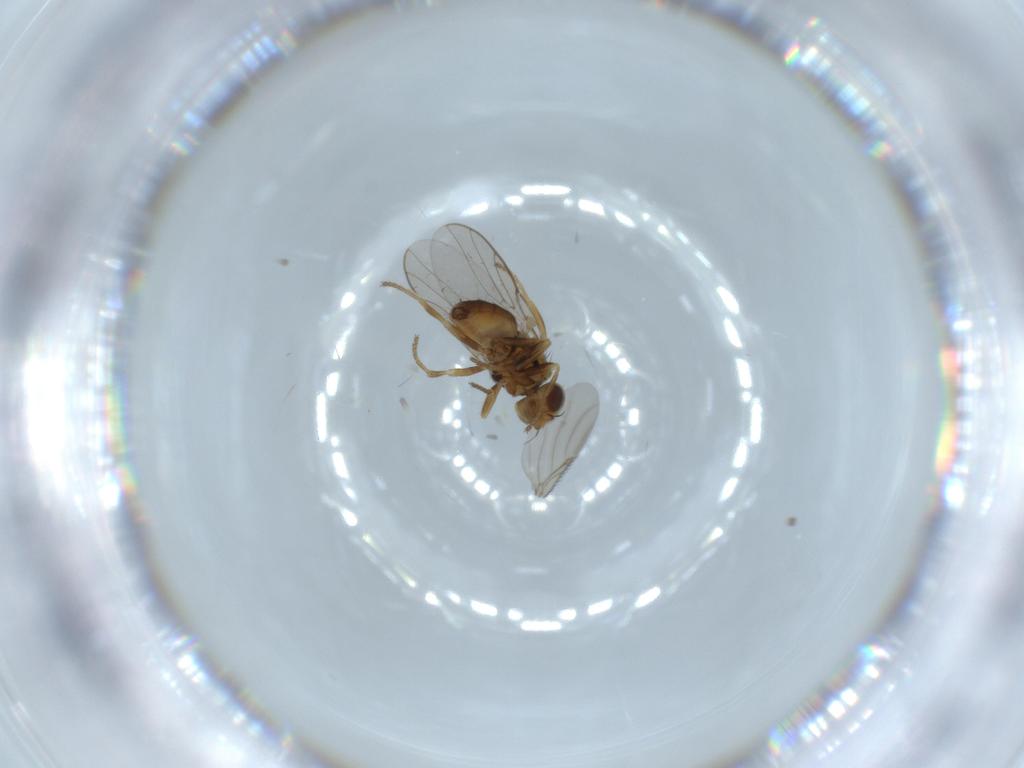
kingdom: Animalia
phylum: Arthropoda
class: Insecta
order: Diptera
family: Chloropidae
